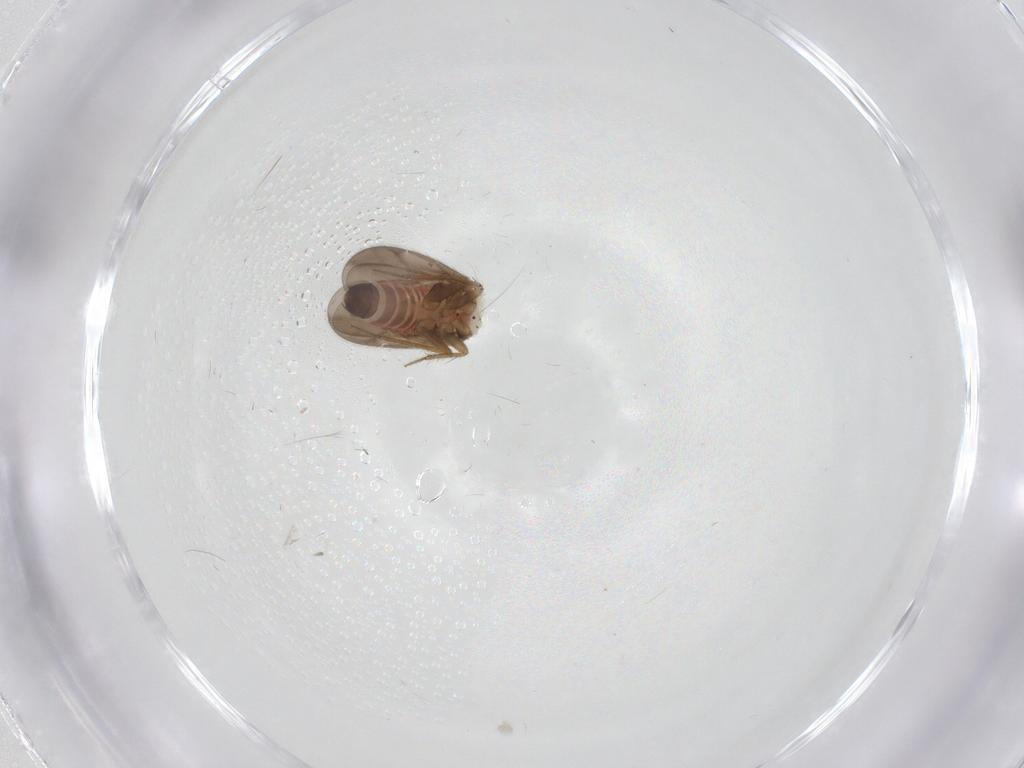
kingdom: Animalia
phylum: Arthropoda
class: Insecta
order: Hemiptera
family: Ceratocombidae
